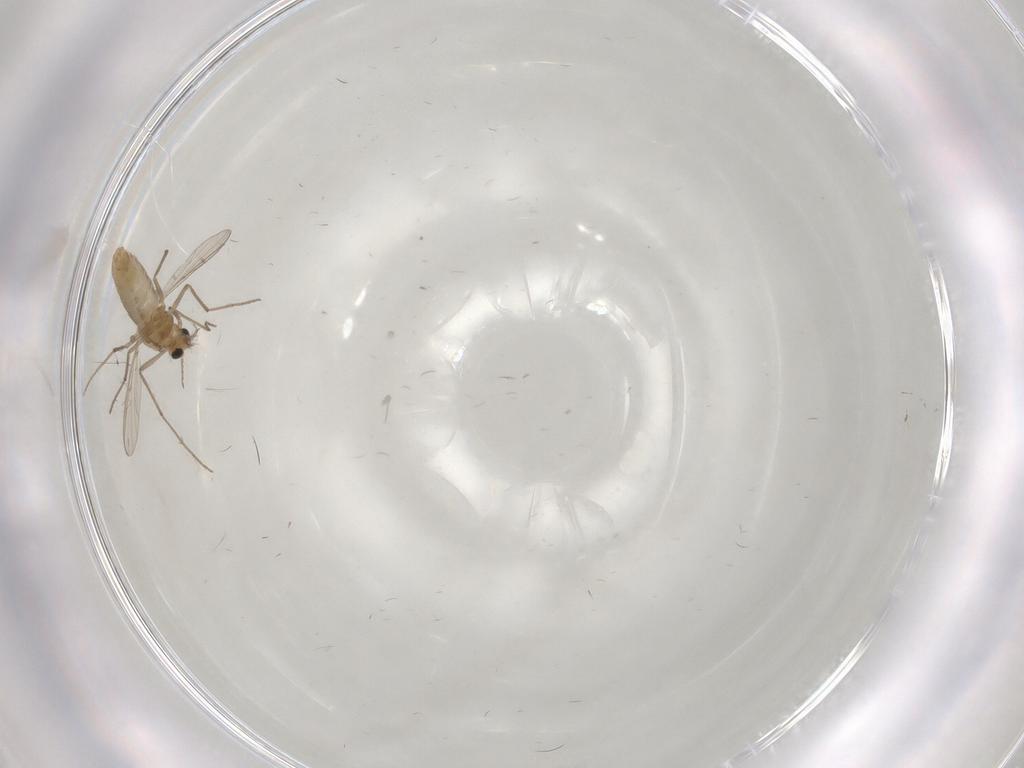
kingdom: Animalia
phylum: Arthropoda
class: Insecta
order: Diptera
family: Chironomidae
